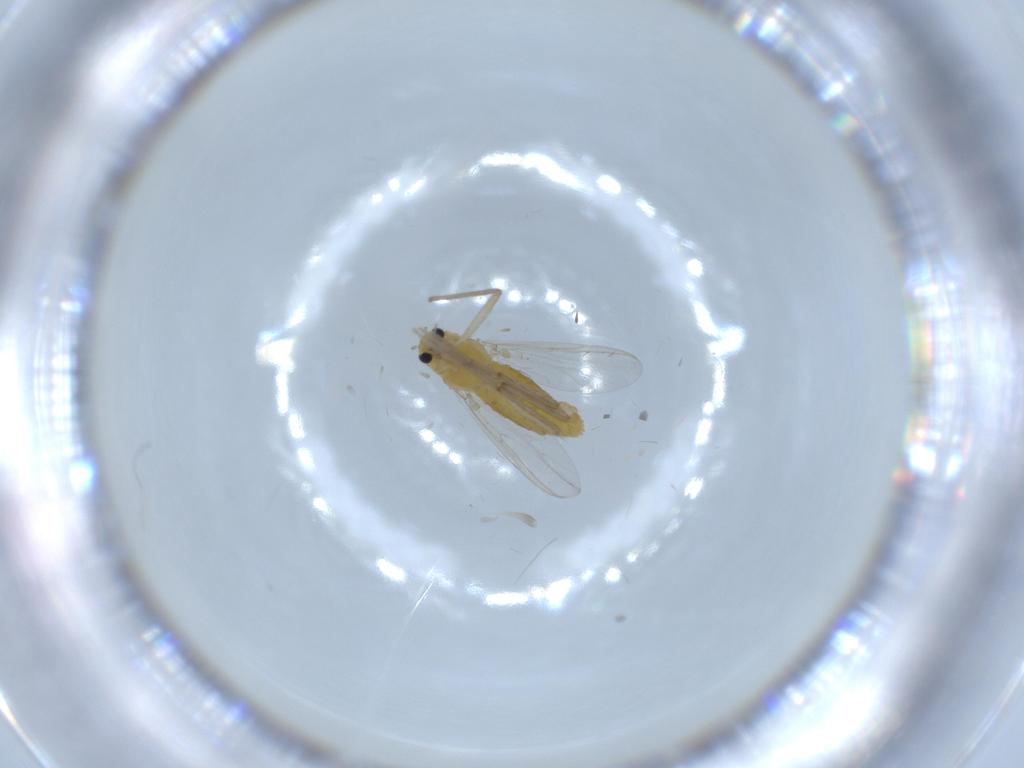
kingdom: Animalia
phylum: Arthropoda
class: Insecta
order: Diptera
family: Chironomidae
